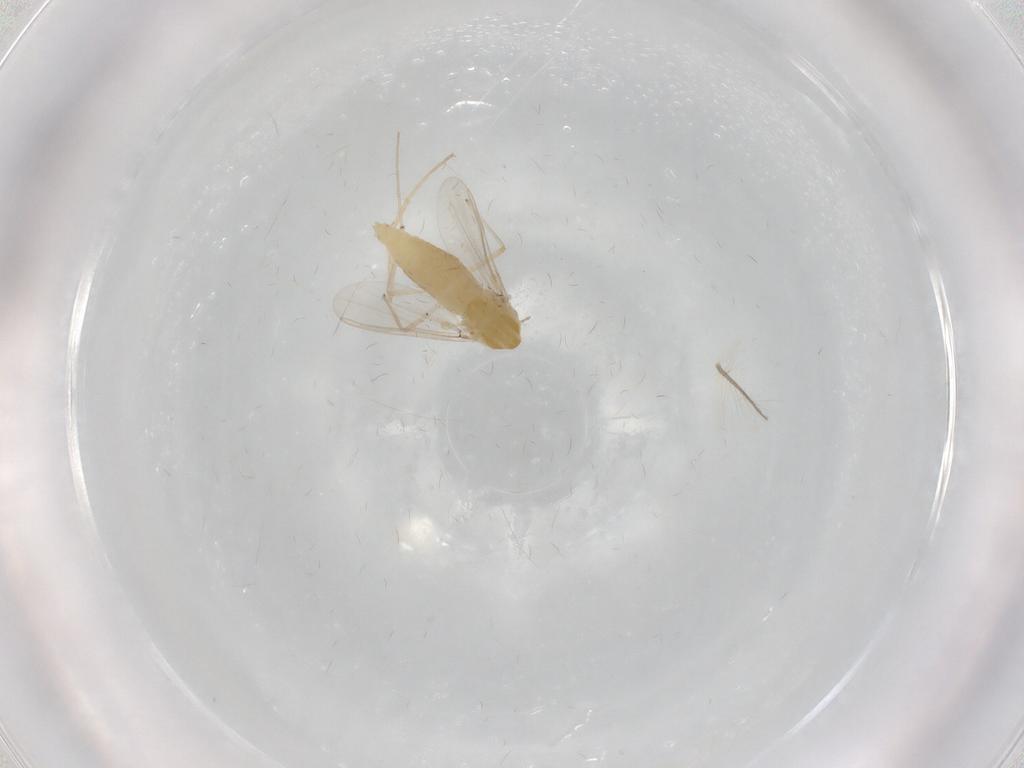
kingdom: Animalia
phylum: Arthropoda
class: Insecta
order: Diptera
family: Chironomidae
